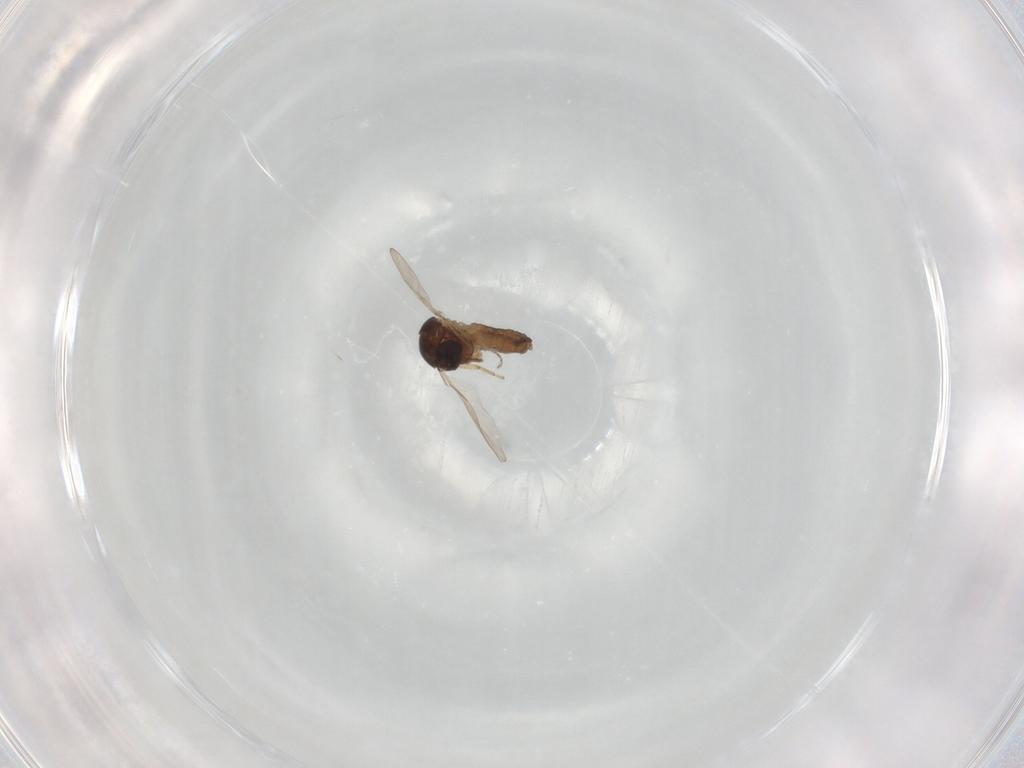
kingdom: Animalia
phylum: Arthropoda
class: Insecta
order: Diptera
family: Ceratopogonidae
